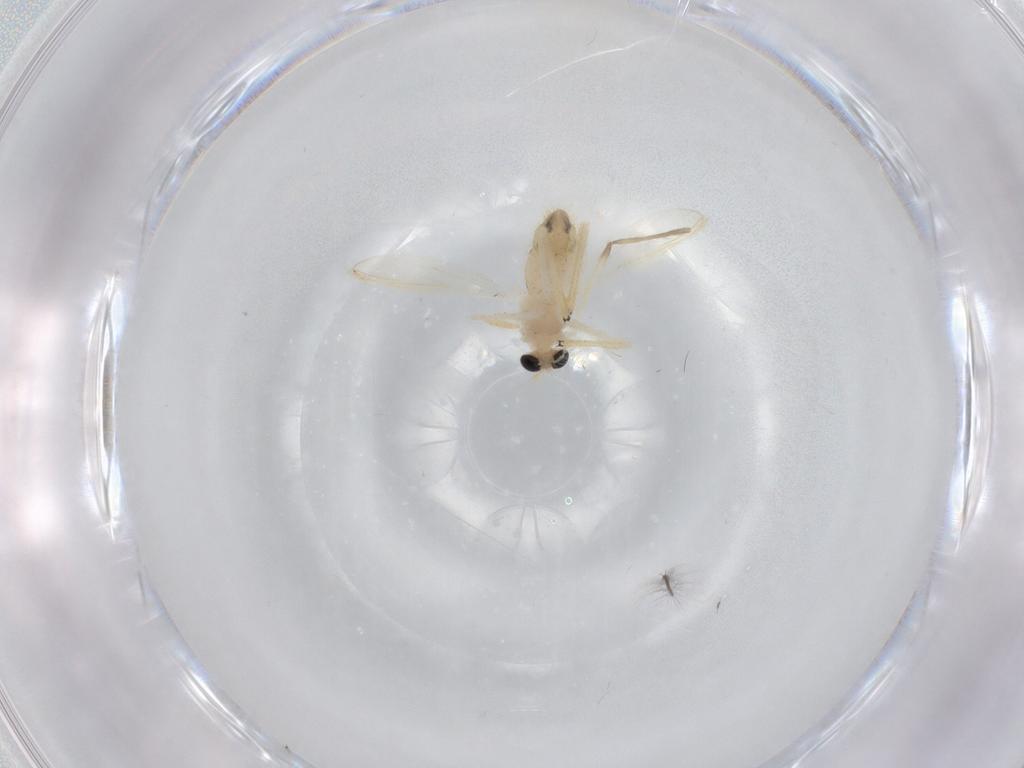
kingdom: Animalia
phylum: Arthropoda
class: Insecta
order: Diptera
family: Chironomidae
